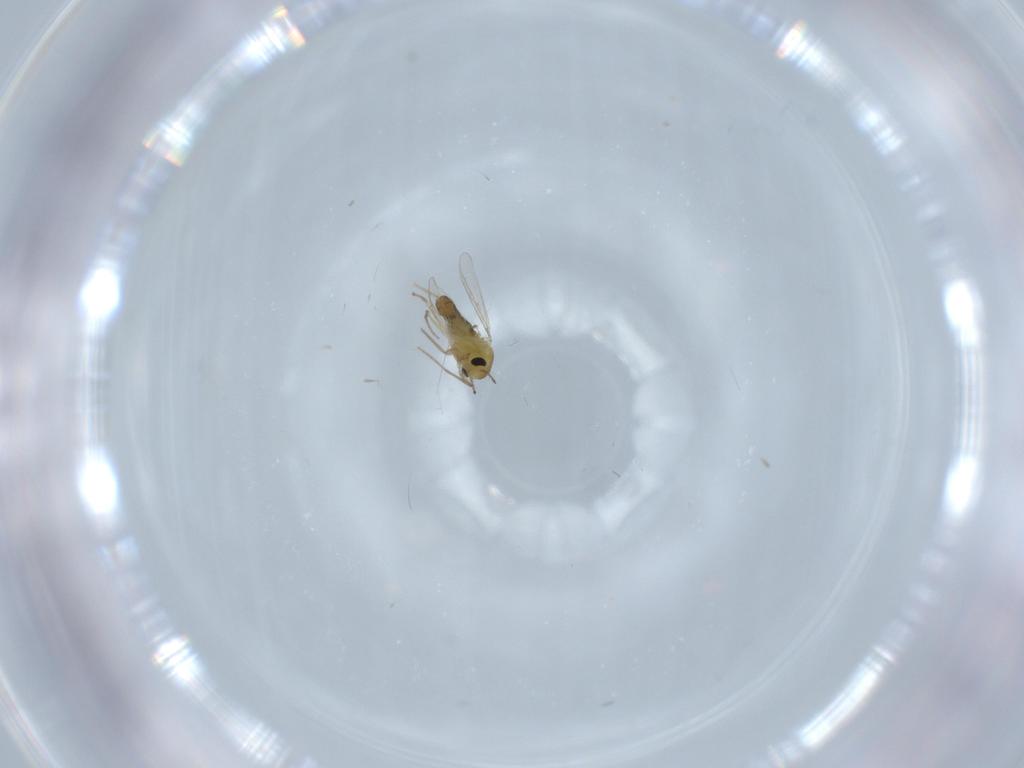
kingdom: Animalia
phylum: Arthropoda
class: Insecta
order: Diptera
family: Chironomidae
